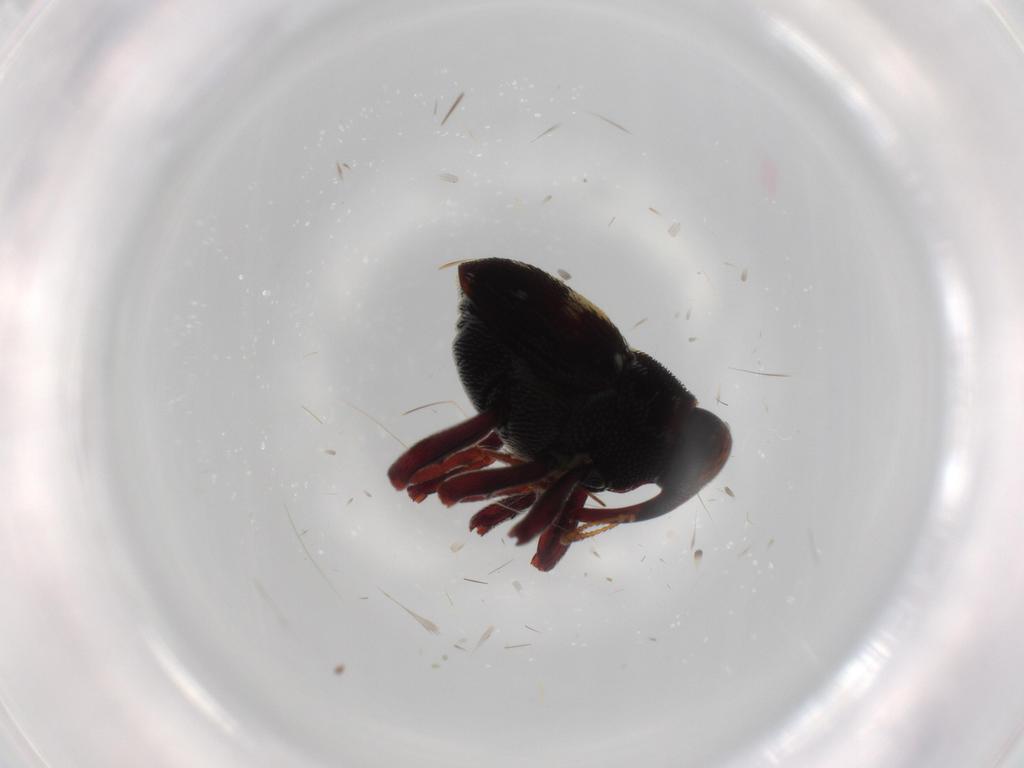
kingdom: Animalia
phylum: Arthropoda
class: Insecta
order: Coleoptera
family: Curculionidae
